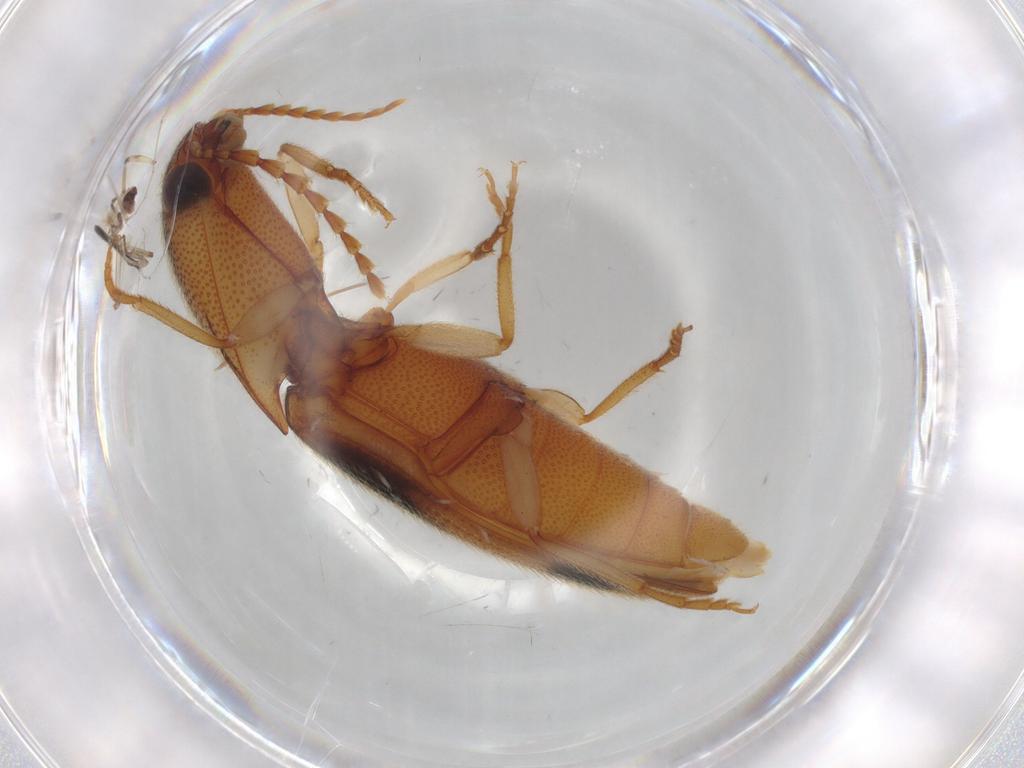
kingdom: Animalia
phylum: Arthropoda
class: Insecta
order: Coleoptera
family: Elateridae
